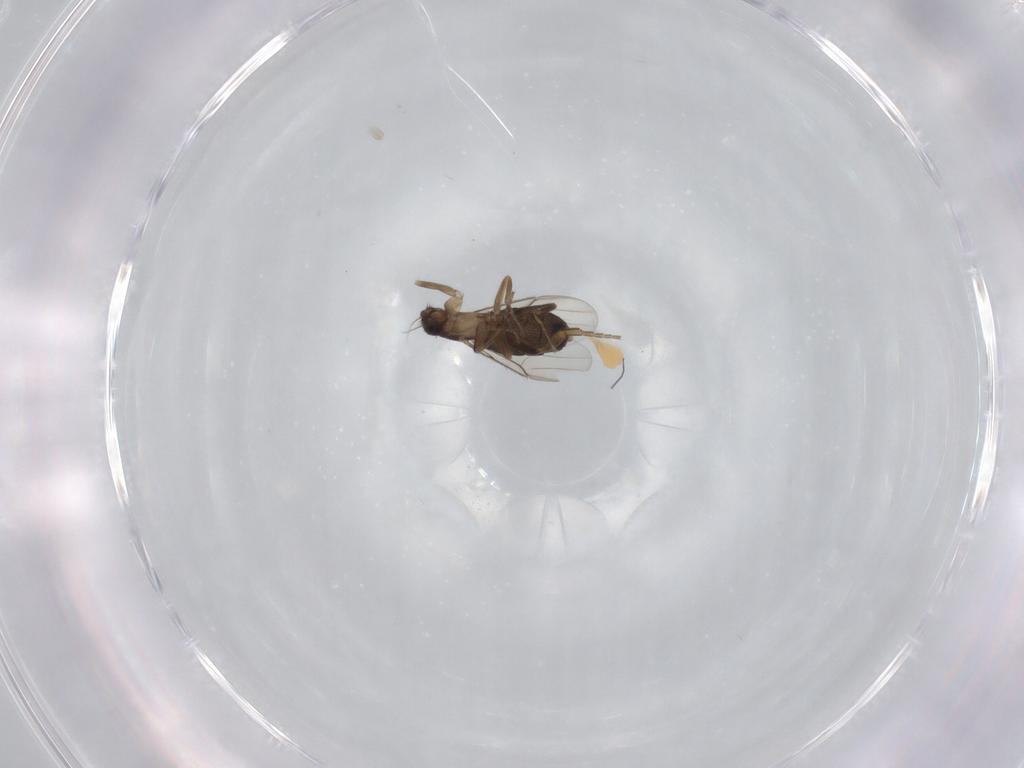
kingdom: Animalia
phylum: Arthropoda
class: Insecta
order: Diptera
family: Phoridae
